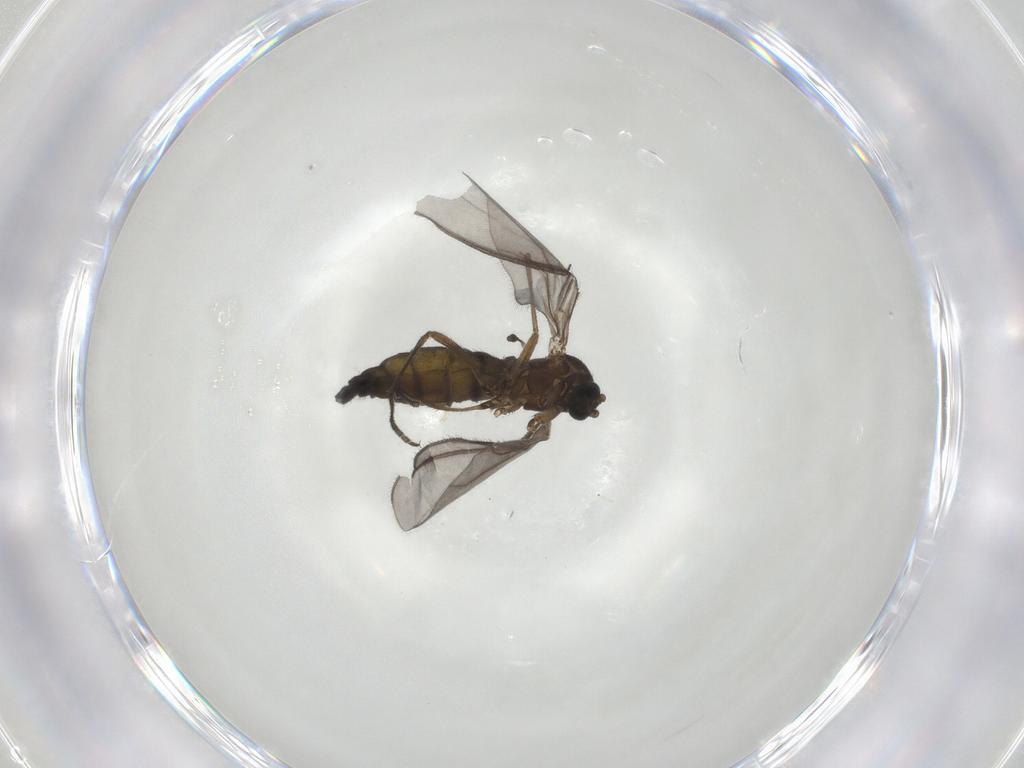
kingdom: Animalia
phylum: Arthropoda
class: Insecta
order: Diptera
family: Sciaridae
